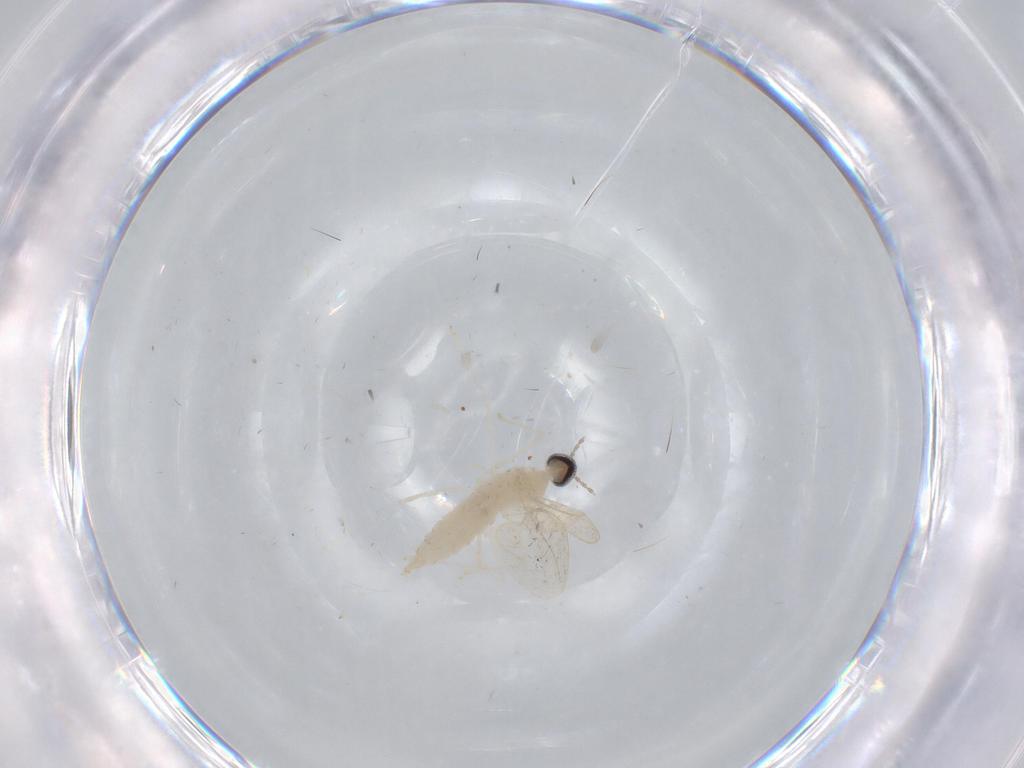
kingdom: Animalia
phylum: Arthropoda
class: Insecta
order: Diptera
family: Cecidomyiidae
